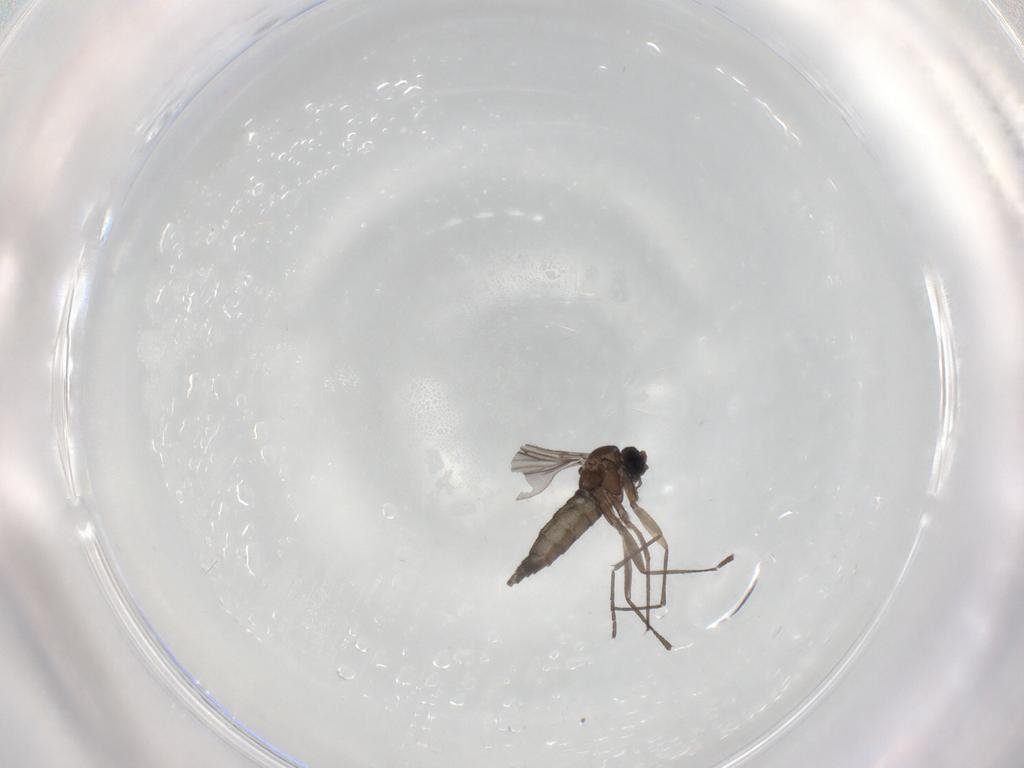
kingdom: Animalia
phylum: Arthropoda
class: Insecta
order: Diptera
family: Sciaridae
